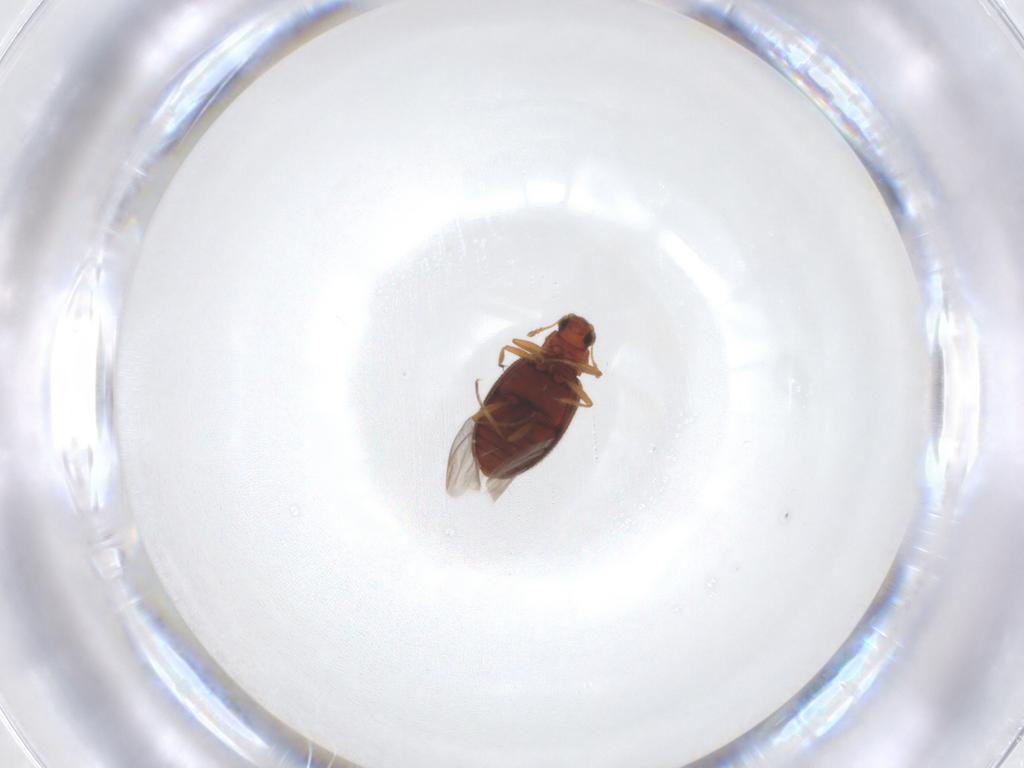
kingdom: Animalia
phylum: Arthropoda
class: Insecta
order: Coleoptera
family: Latridiidae
